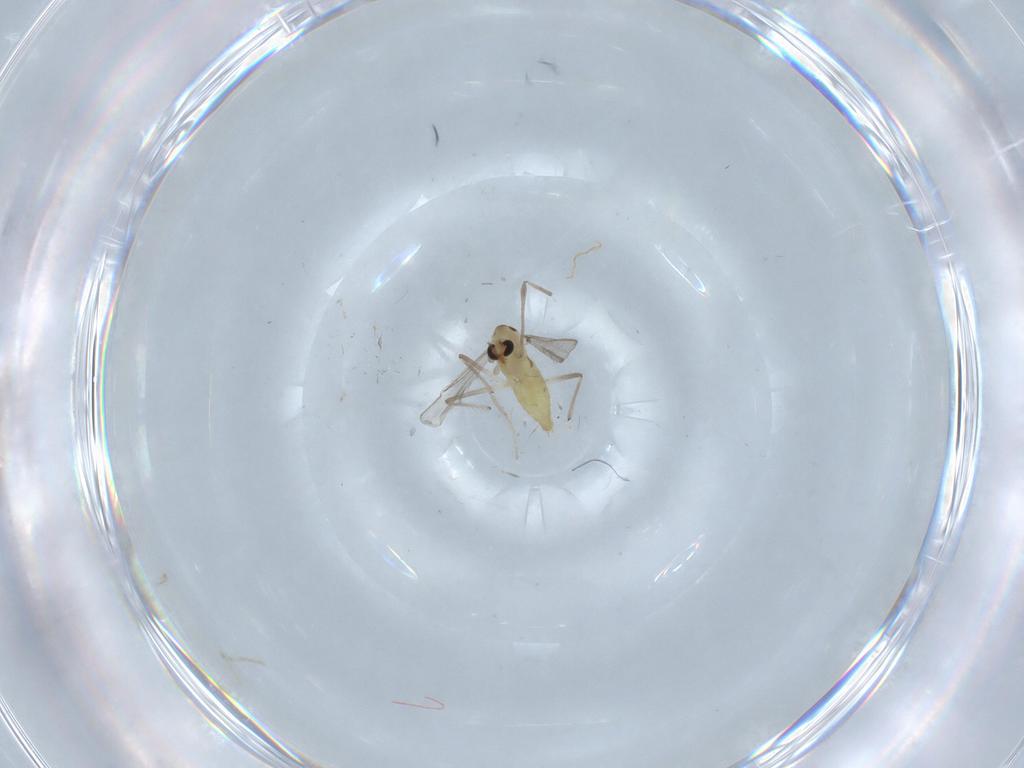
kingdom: Animalia
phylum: Arthropoda
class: Insecta
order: Diptera
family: Chironomidae
